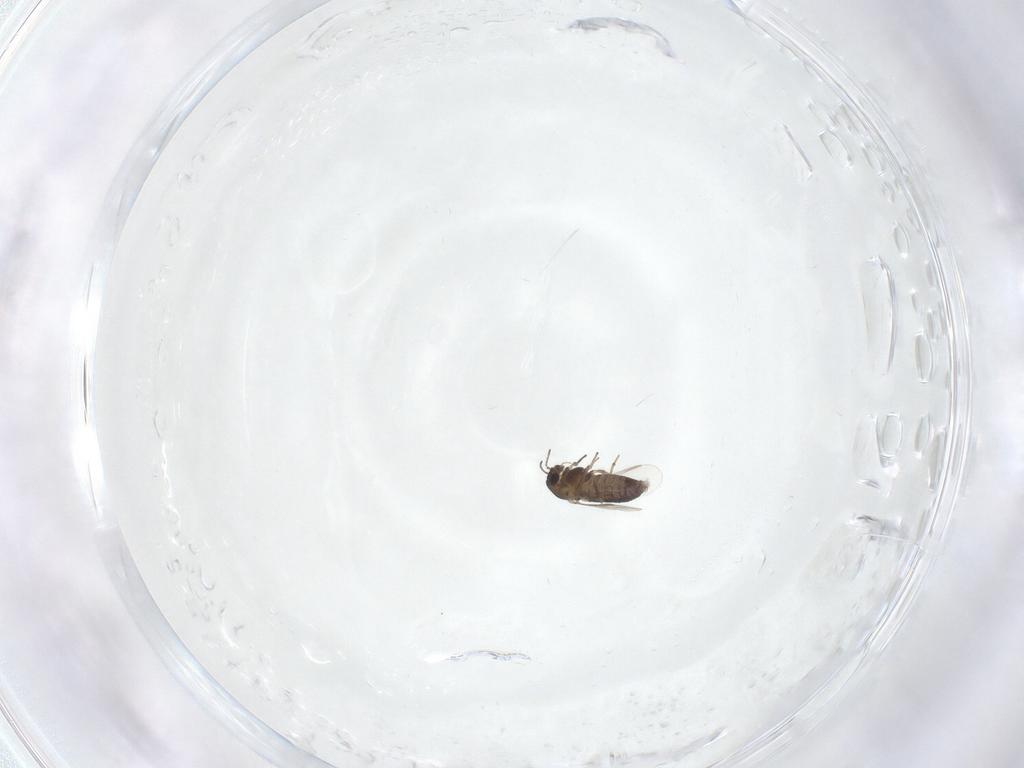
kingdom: Animalia
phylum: Arthropoda
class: Insecta
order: Diptera
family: Chironomidae
